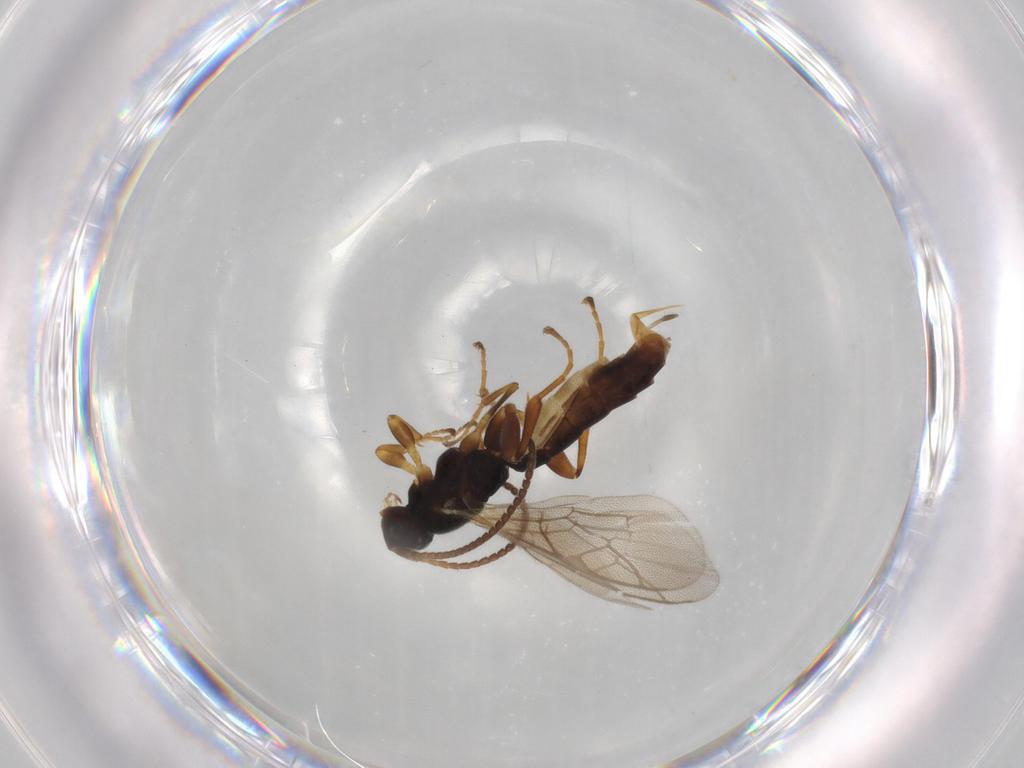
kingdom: Animalia
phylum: Arthropoda
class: Insecta
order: Hymenoptera
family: Ichneumonidae
